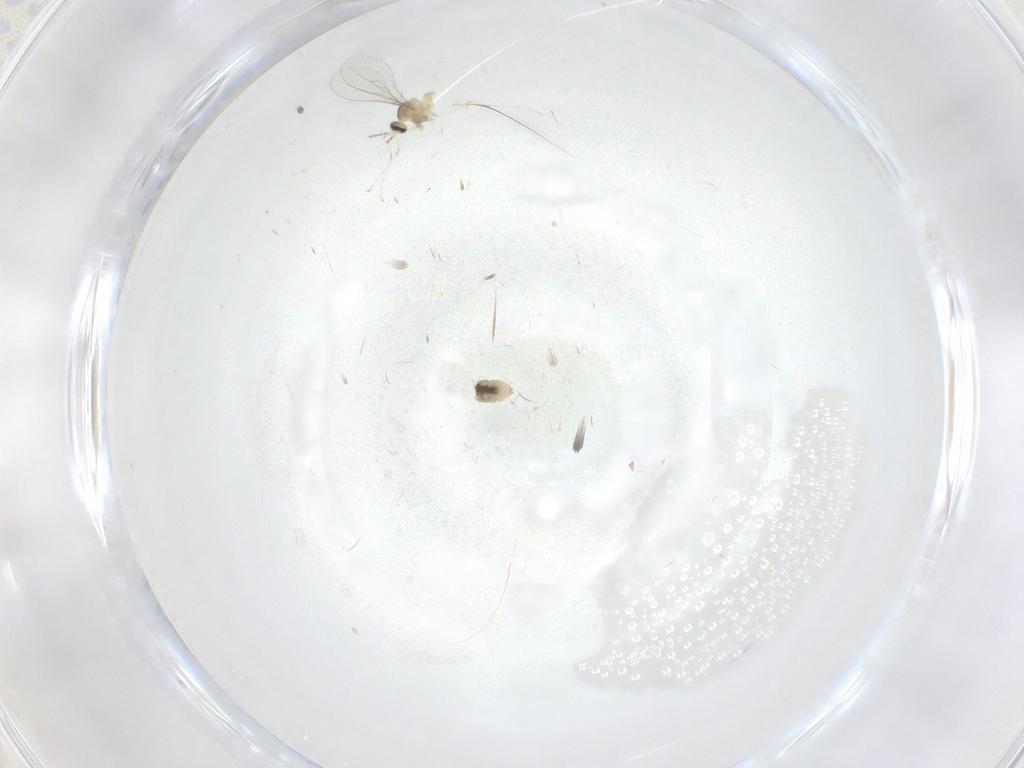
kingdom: Animalia
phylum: Arthropoda
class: Insecta
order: Diptera
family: Cecidomyiidae
